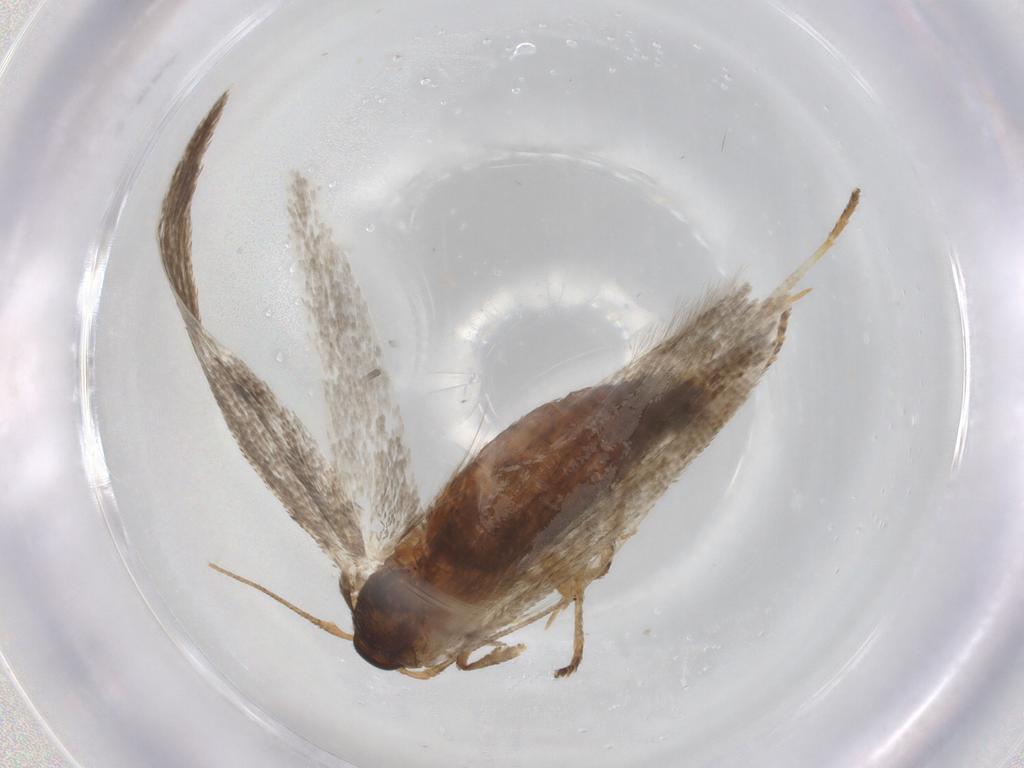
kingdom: Animalia
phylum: Arthropoda
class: Insecta
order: Lepidoptera
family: Blastobasidae
